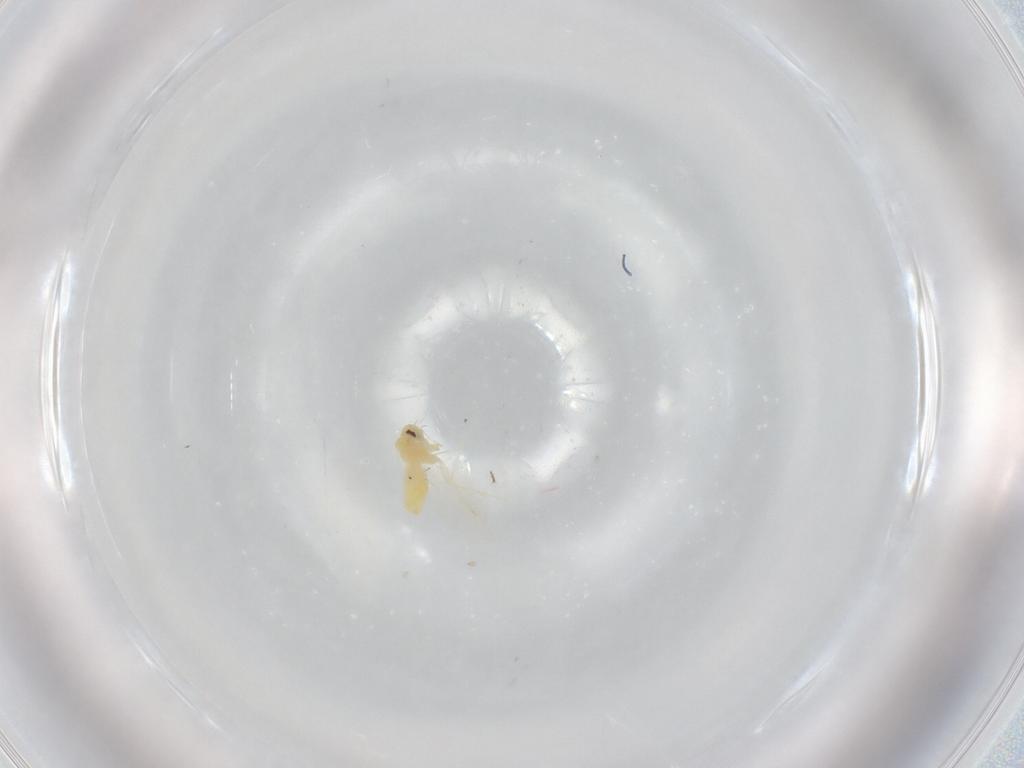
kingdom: Animalia
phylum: Arthropoda
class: Insecta
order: Hemiptera
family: Aleyrodidae
